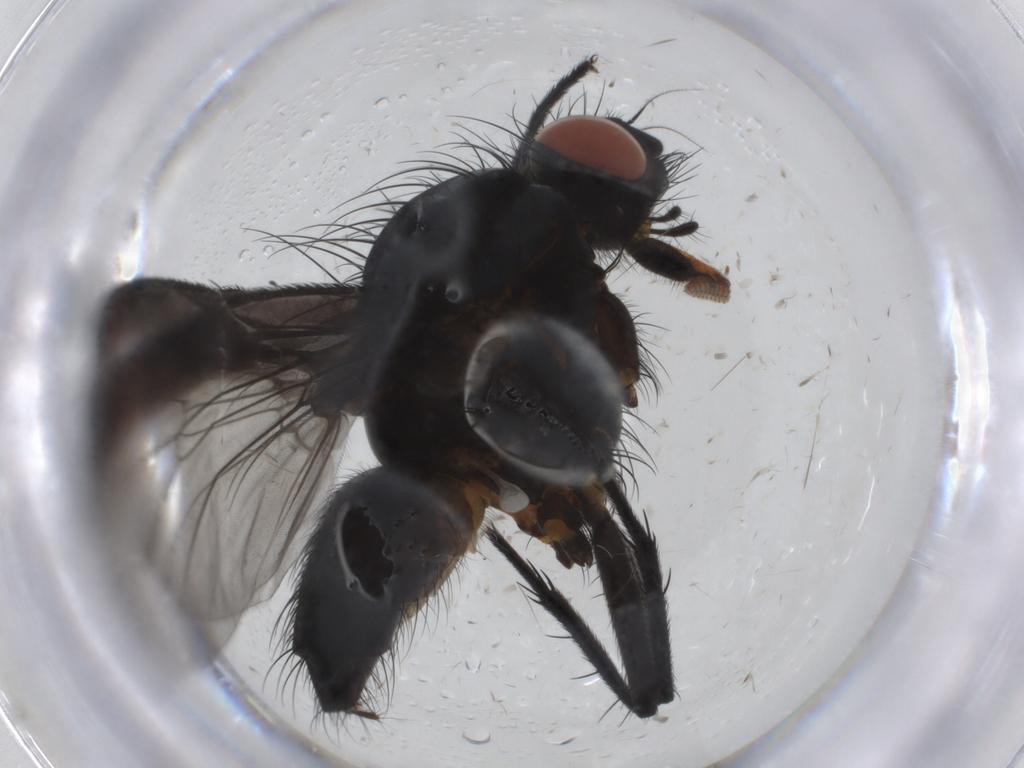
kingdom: Animalia
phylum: Arthropoda
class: Insecta
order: Diptera
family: Anthomyiidae
